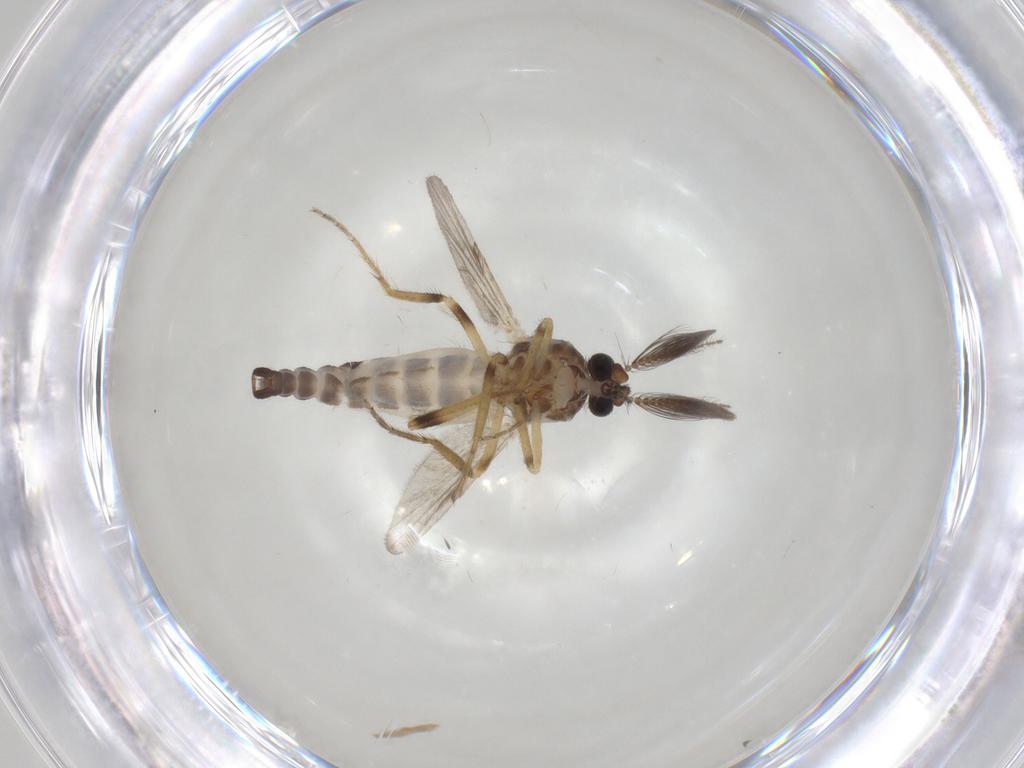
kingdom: Animalia
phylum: Arthropoda
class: Insecta
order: Diptera
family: Ceratopogonidae
